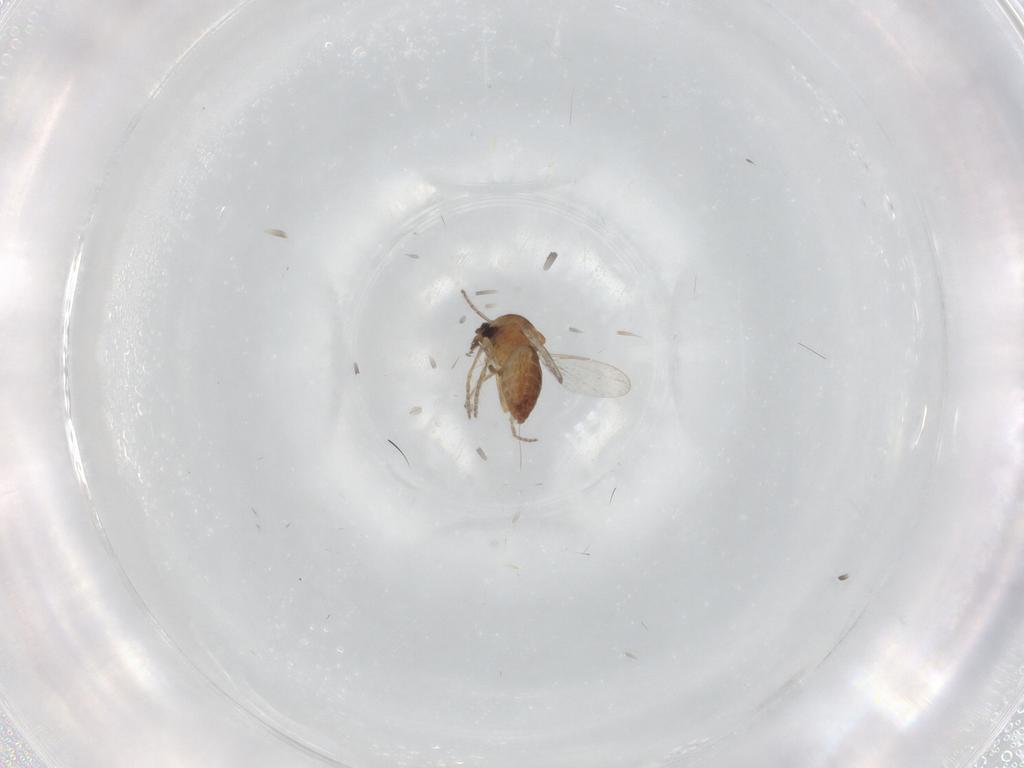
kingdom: Animalia
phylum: Arthropoda
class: Insecta
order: Diptera
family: Ceratopogonidae
